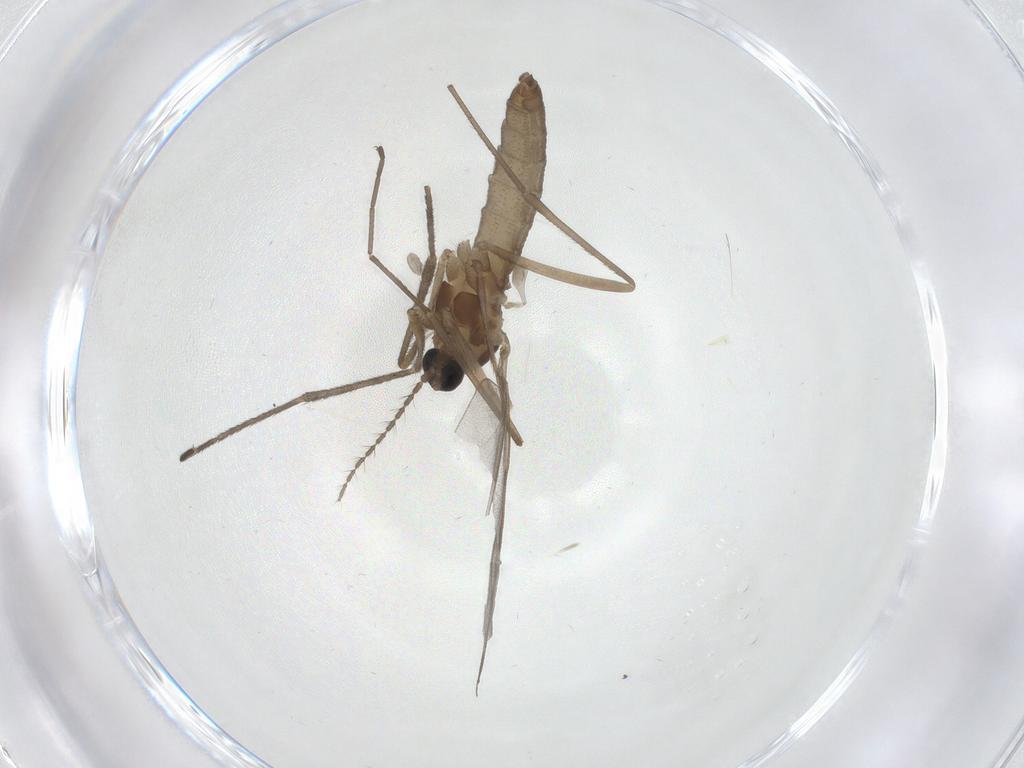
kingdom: Animalia
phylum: Arthropoda
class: Insecta
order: Diptera
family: Cecidomyiidae
